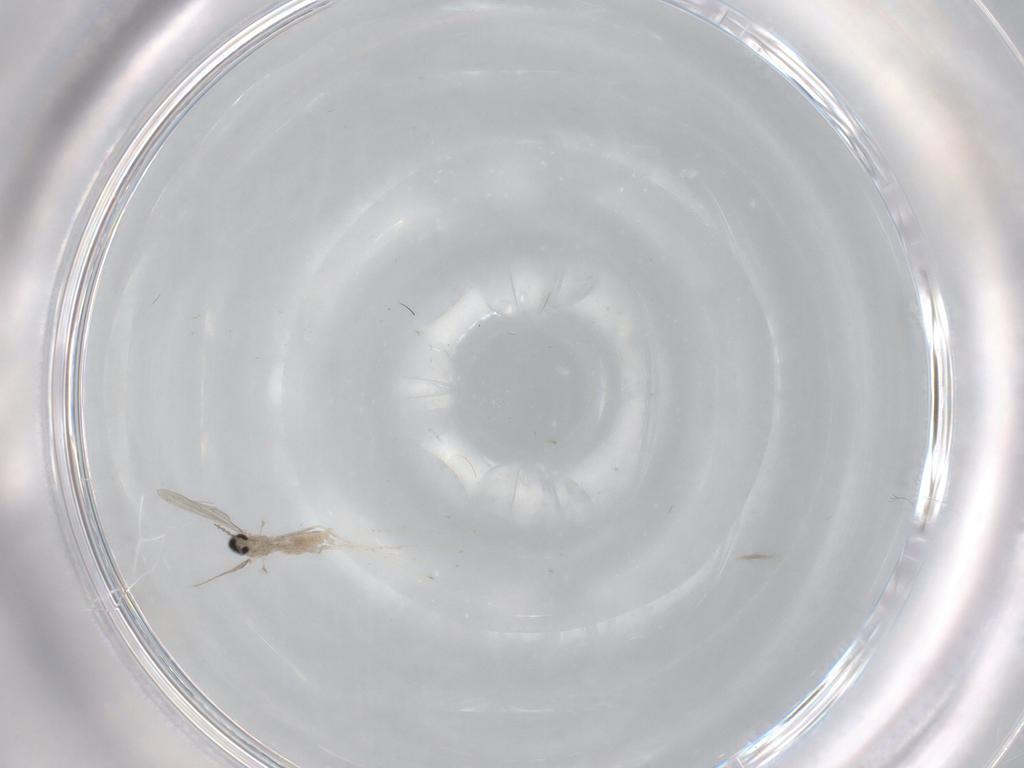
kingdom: Animalia
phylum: Arthropoda
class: Insecta
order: Diptera
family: Cecidomyiidae
